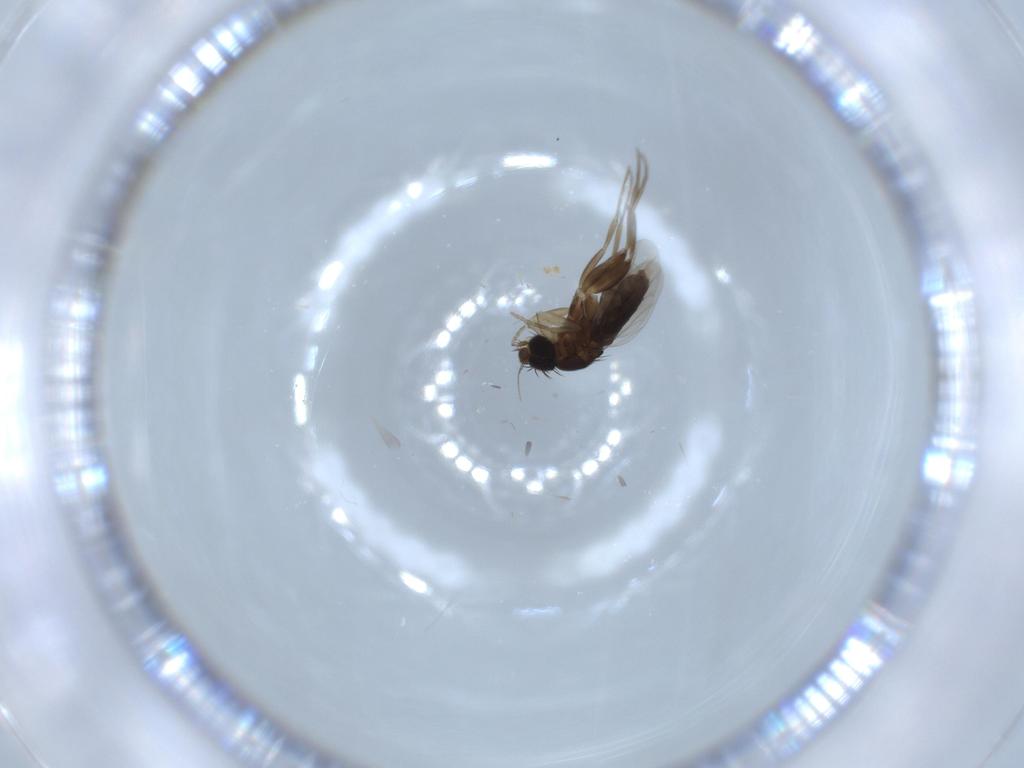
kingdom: Animalia
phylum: Arthropoda
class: Insecta
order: Diptera
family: Phoridae
